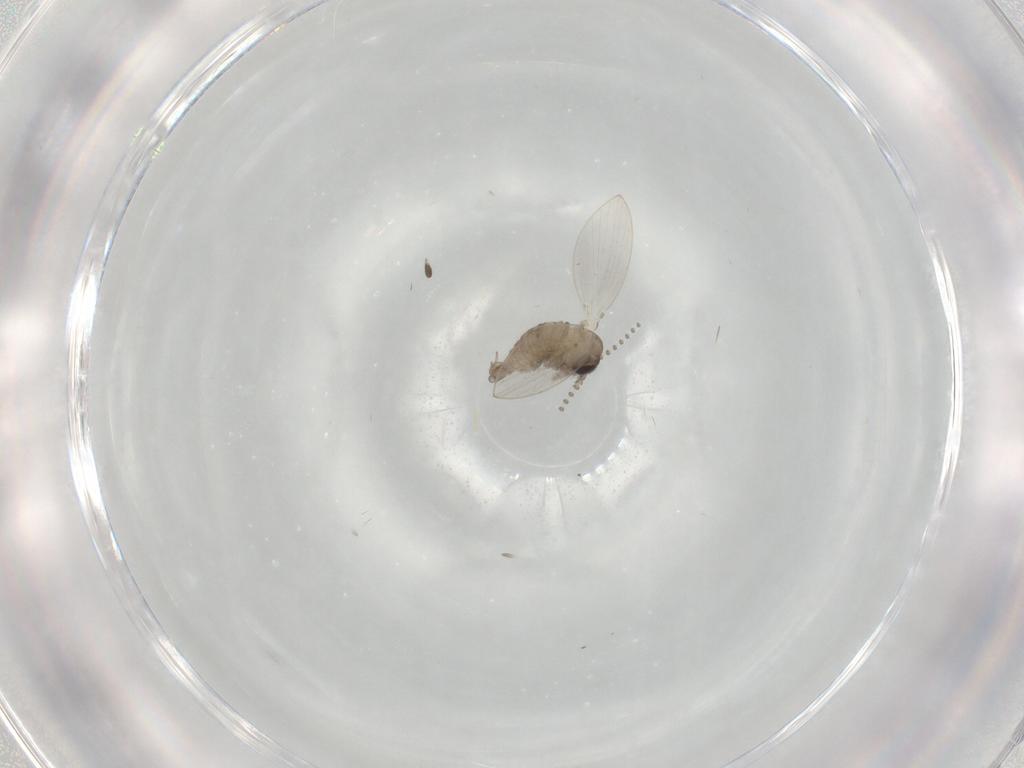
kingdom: Animalia
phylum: Arthropoda
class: Insecta
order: Diptera
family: Psychodidae
